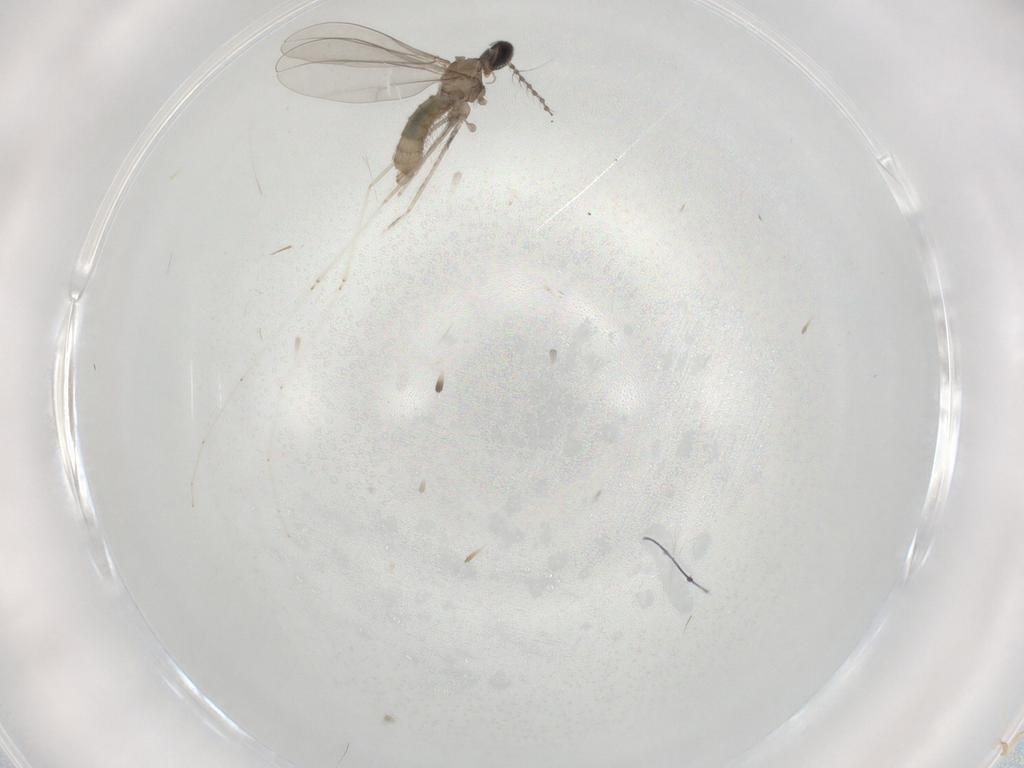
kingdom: Animalia
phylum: Arthropoda
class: Insecta
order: Diptera
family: Cecidomyiidae
